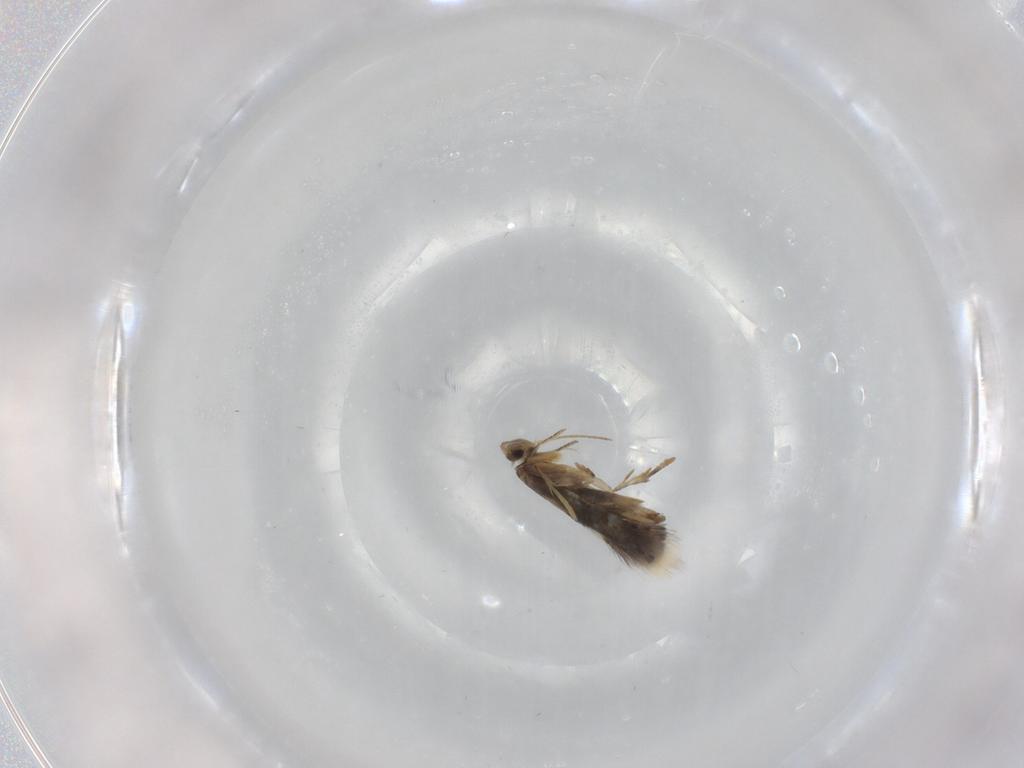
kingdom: Animalia
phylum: Arthropoda
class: Insecta
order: Lepidoptera
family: Heliozelidae
